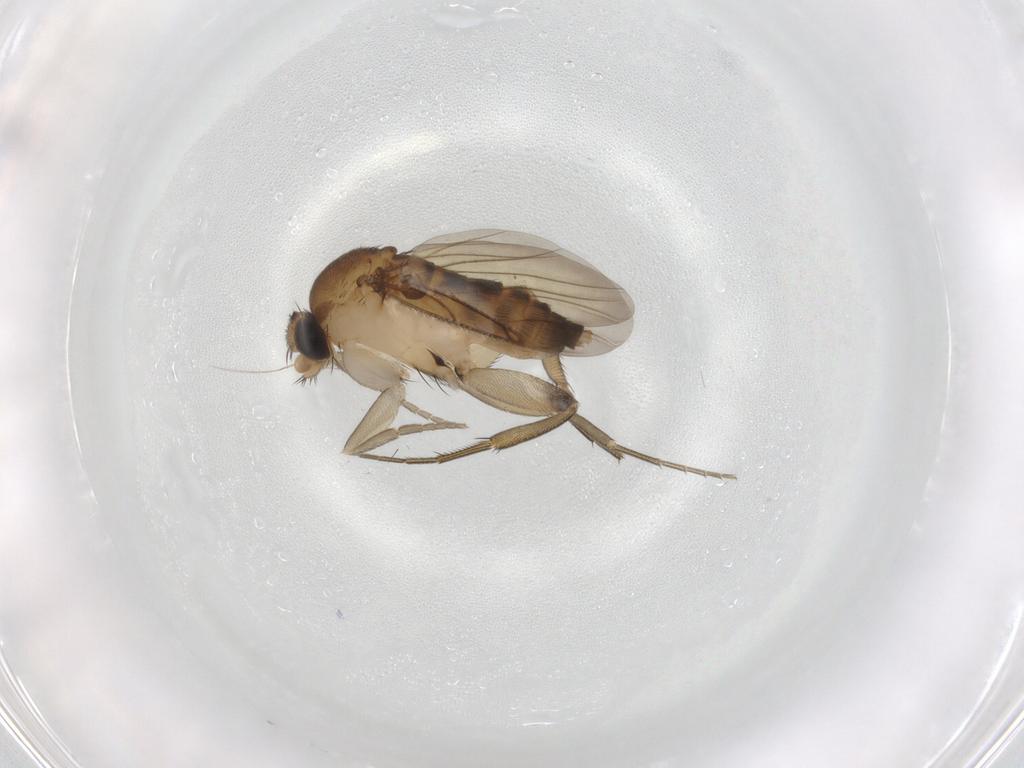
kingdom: Animalia
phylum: Arthropoda
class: Insecta
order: Diptera
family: Phoridae
